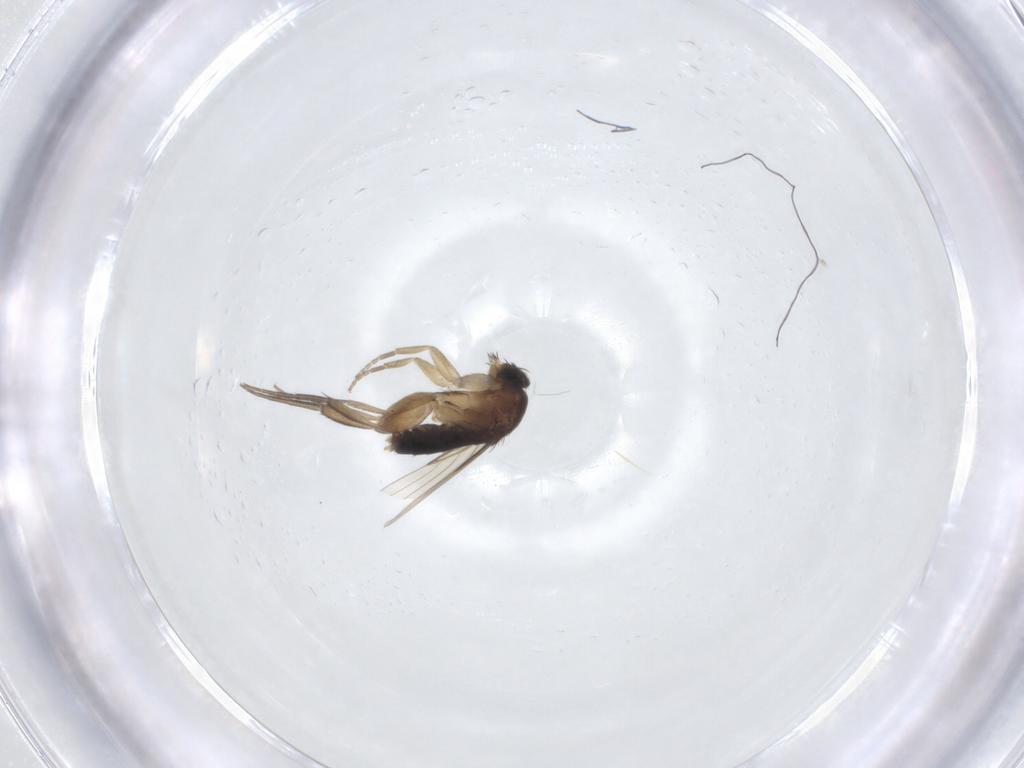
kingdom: Animalia
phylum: Arthropoda
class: Insecta
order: Diptera
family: Phoridae
